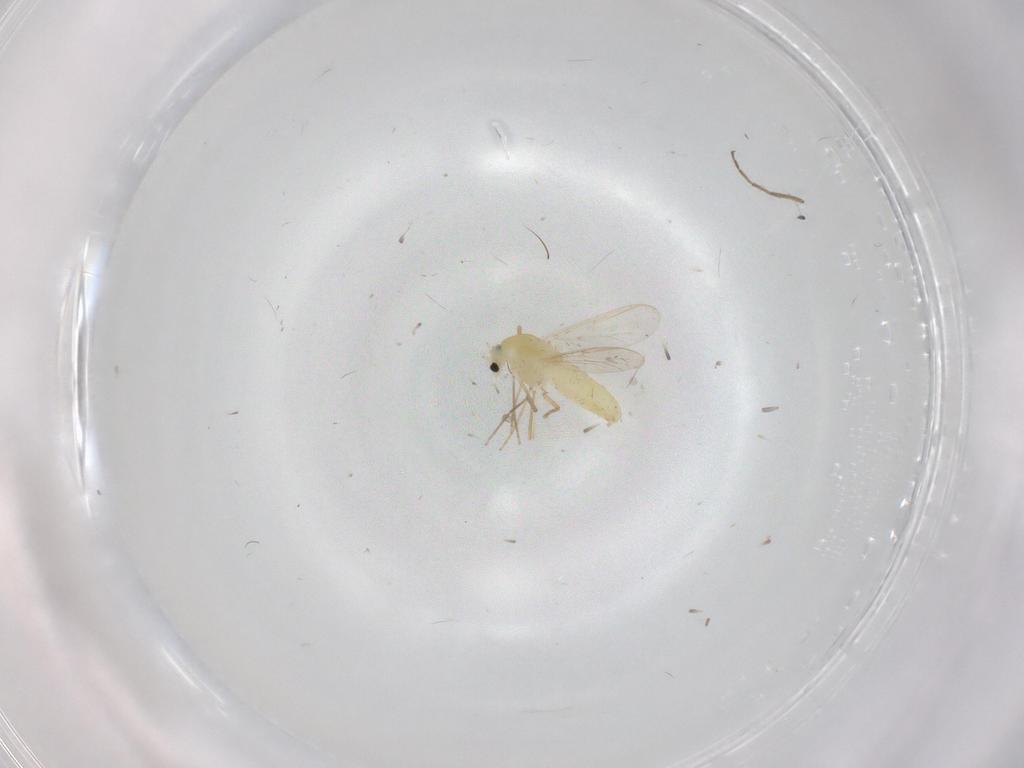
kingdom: Animalia
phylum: Arthropoda
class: Insecta
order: Diptera
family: Chironomidae
